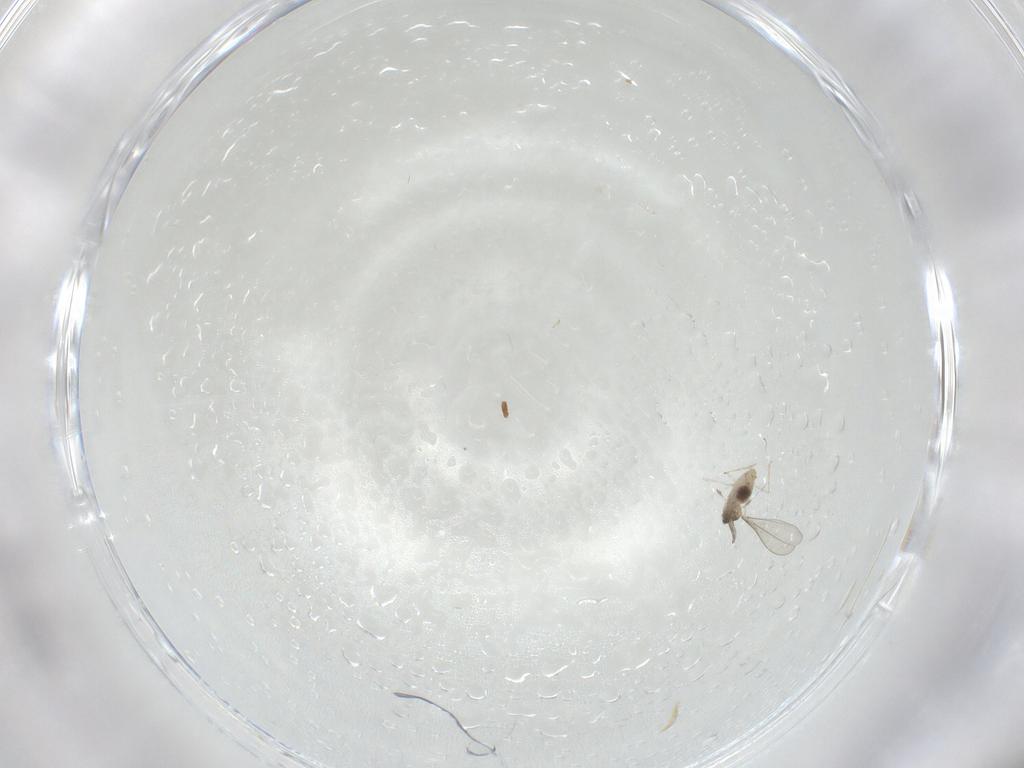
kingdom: Animalia
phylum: Arthropoda
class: Insecta
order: Diptera
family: Cecidomyiidae
